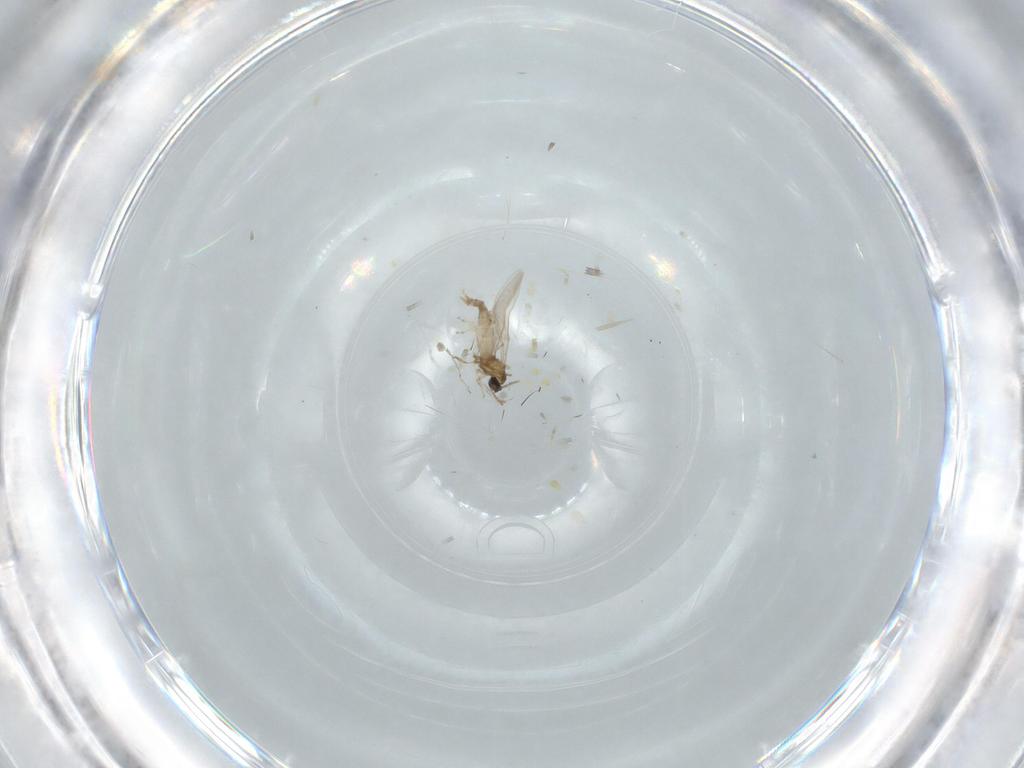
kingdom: Animalia
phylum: Arthropoda
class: Insecta
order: Diptera
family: Cecidomyiidae
